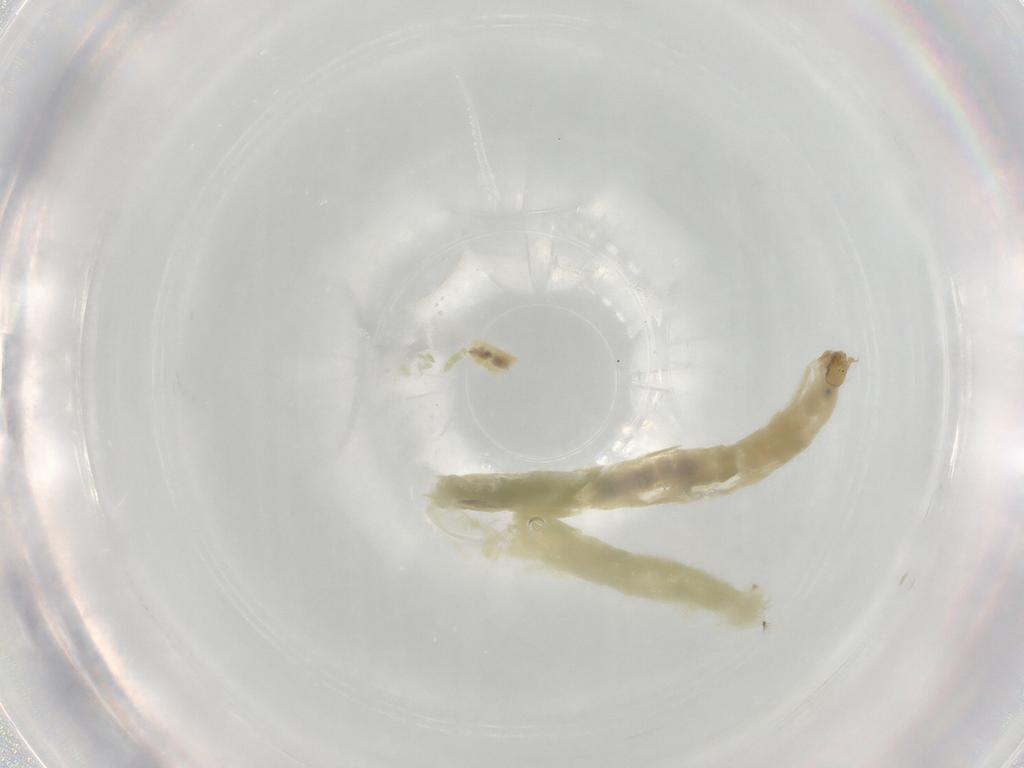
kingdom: Animalia
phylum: Arthropoda
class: Insecta
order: Diptera
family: Chironomidae
